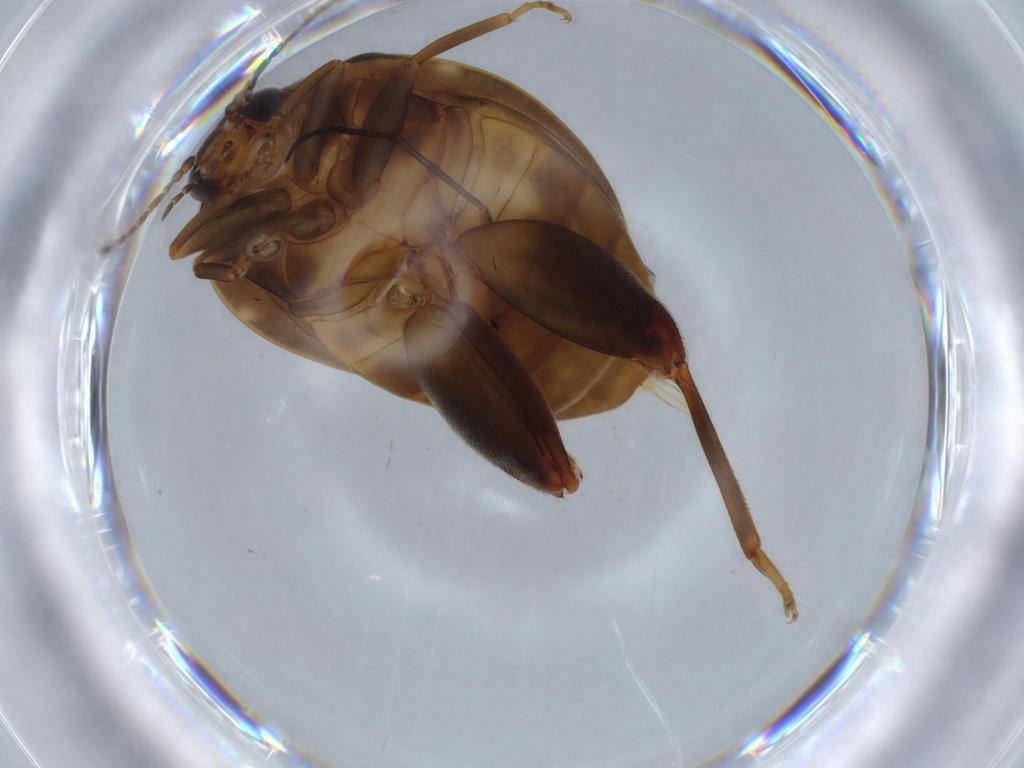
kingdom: Animalia
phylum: Arthropoda
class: Insecta
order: Coleoptera
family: Scirtidae
